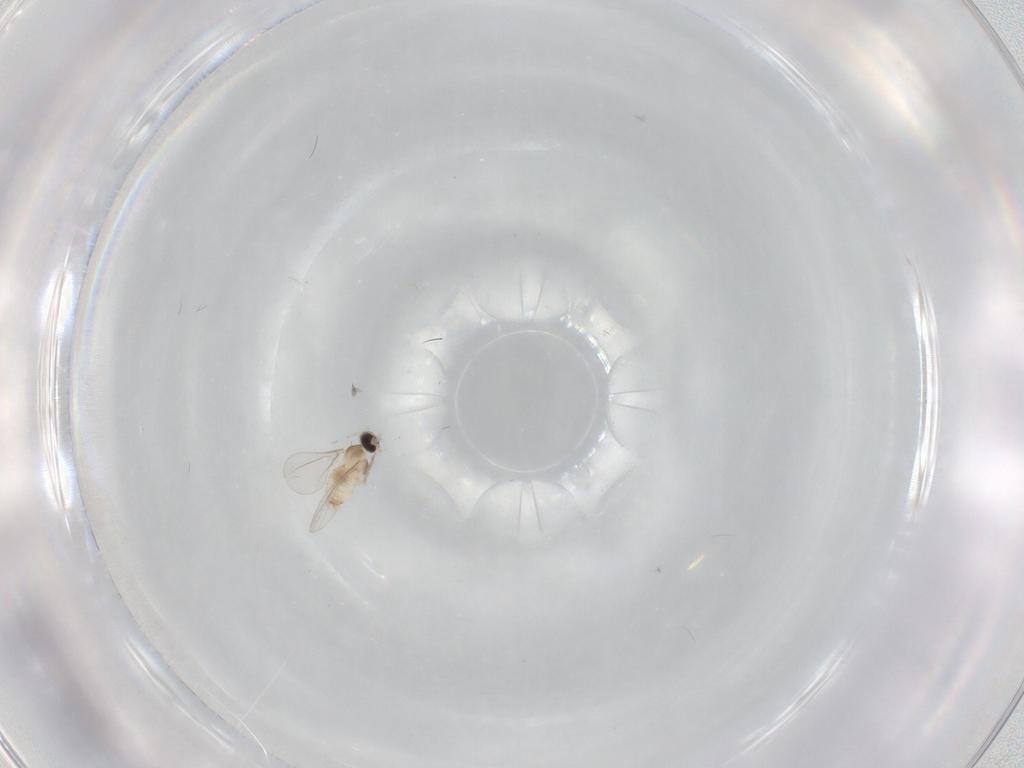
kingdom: Animalia
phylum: Arthropoda
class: Insecta
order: Diptera
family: Cecidomyiidae
